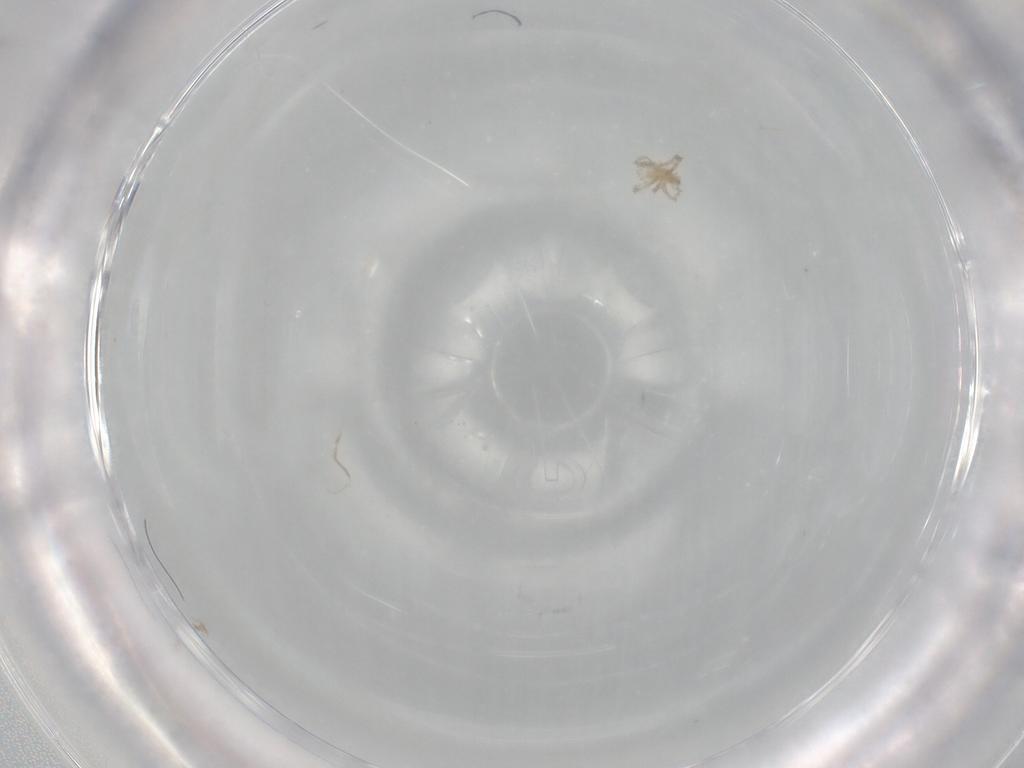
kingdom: Animalia
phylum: Arthropoda
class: Arachnida
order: Trombidiformes
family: Erythraeidae
